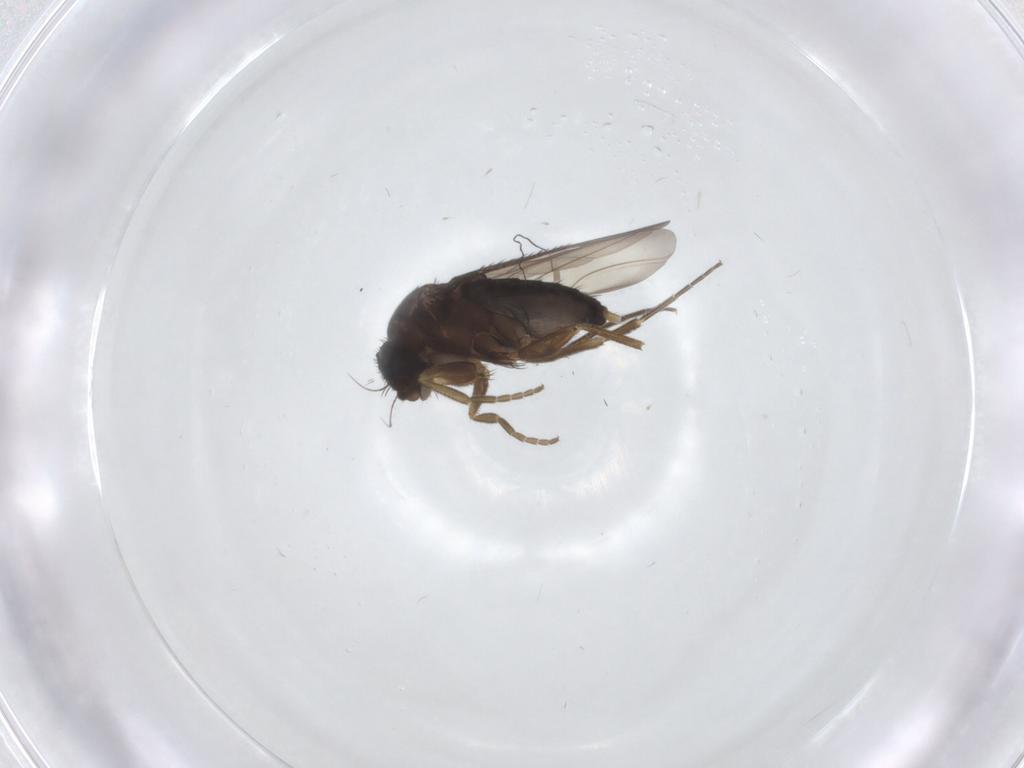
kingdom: Animalia
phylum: Arthropoda
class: Insecta
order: Diptera
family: Phoridae
